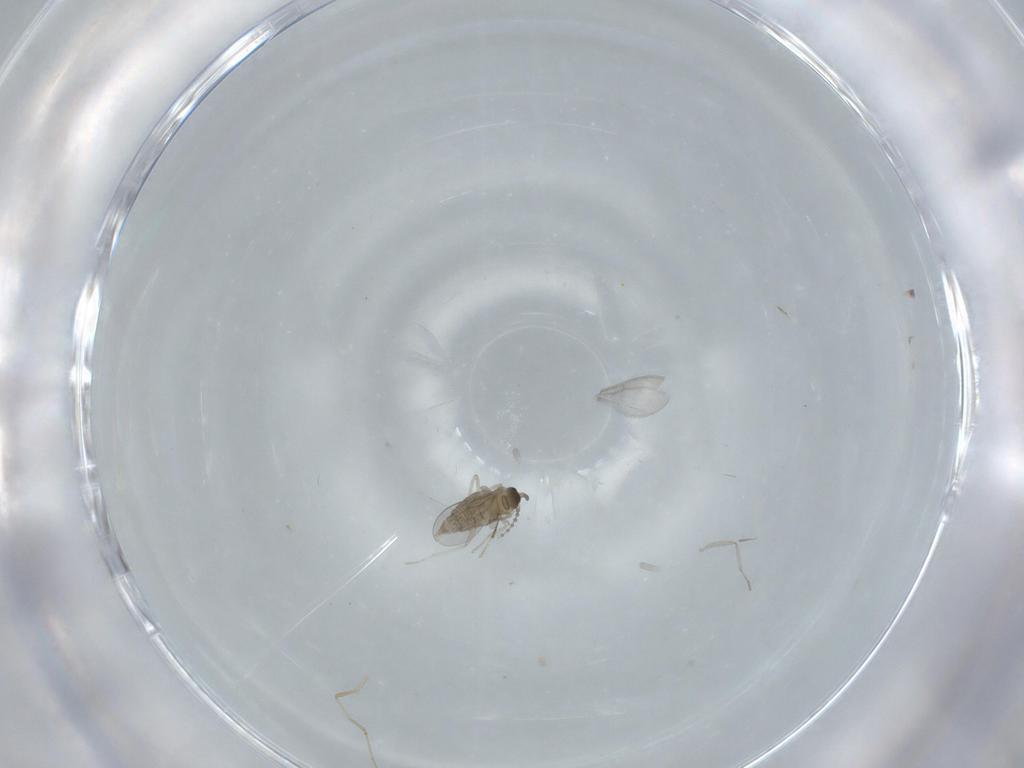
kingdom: Animalia
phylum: Arthropoda
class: Insecta
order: Diptera
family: Cecidomyiidae
